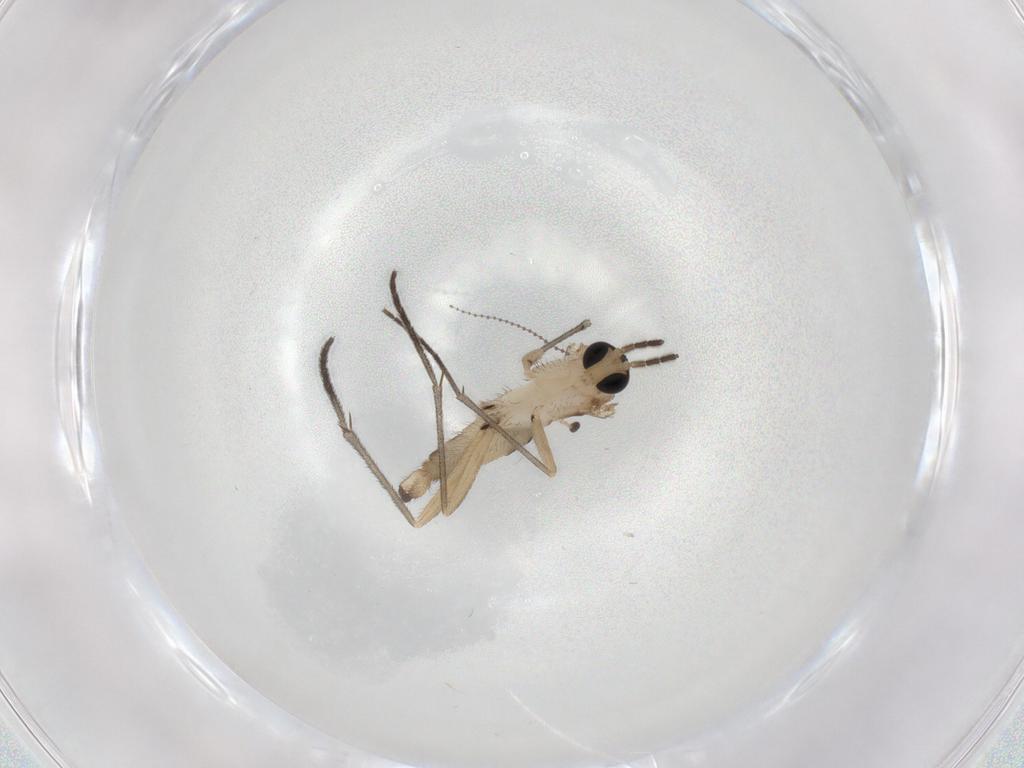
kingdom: Animalia
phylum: Arthropoda
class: Insecta
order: Diptera
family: Sciaridae
